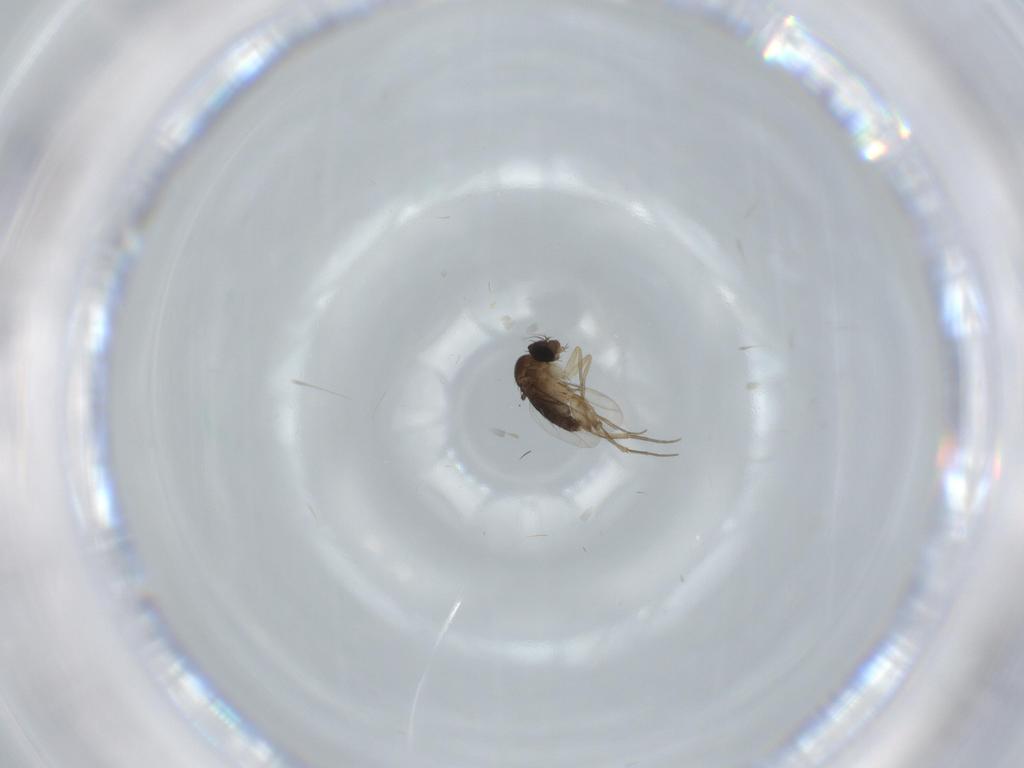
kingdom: Animalia
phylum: Arthropoda
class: Insecta
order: Diptera
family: Phoridae
